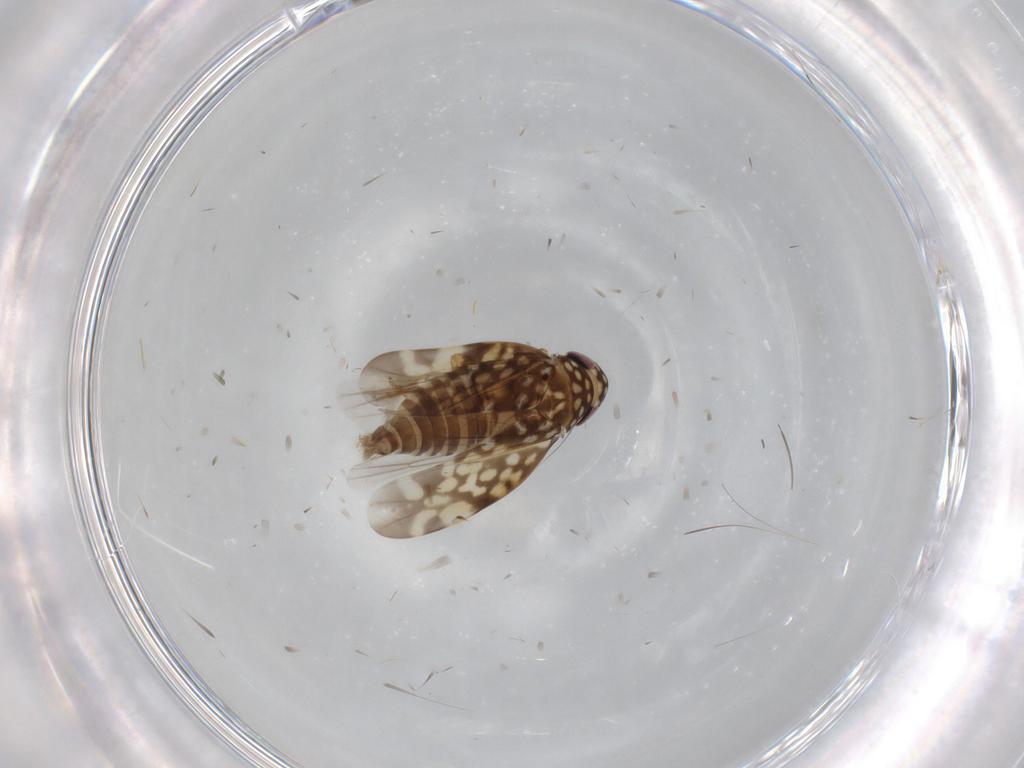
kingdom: Animalia
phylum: Arthropoda
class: Insecta
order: Hemiptera
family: Cicadellidae
